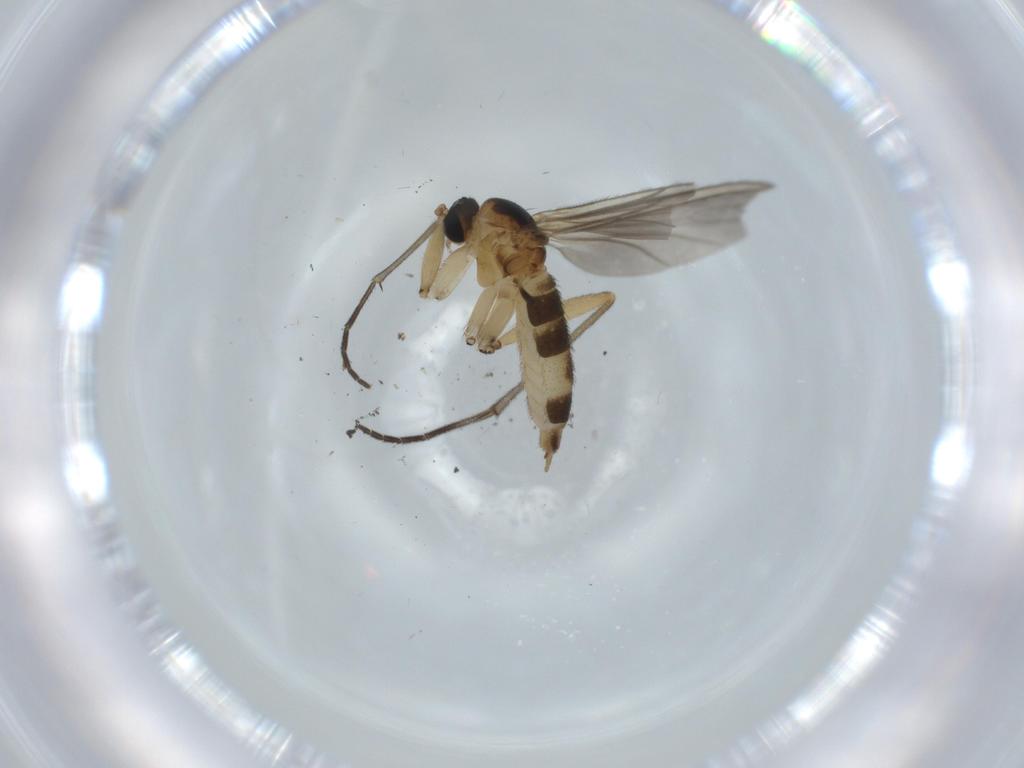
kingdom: Animalia
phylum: Arthropoda
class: Insecta
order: Diptera
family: Sciaridae
